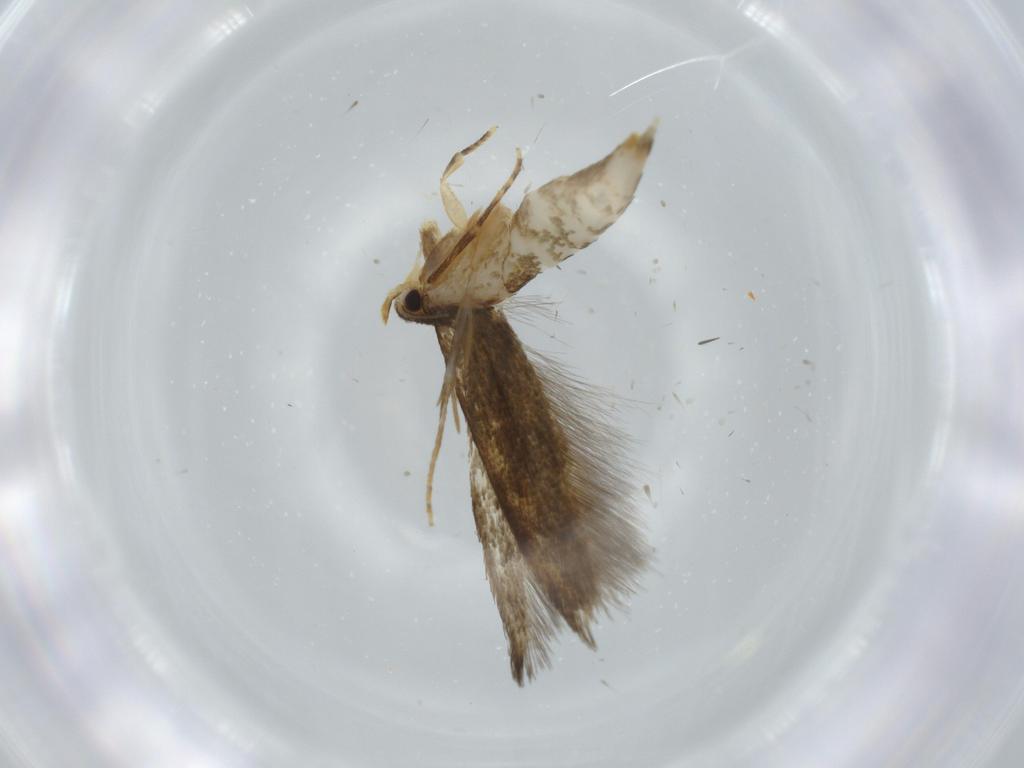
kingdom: Animalia
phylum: Arthropoda
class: Insecta
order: Lepidoptera
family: Tineidae
